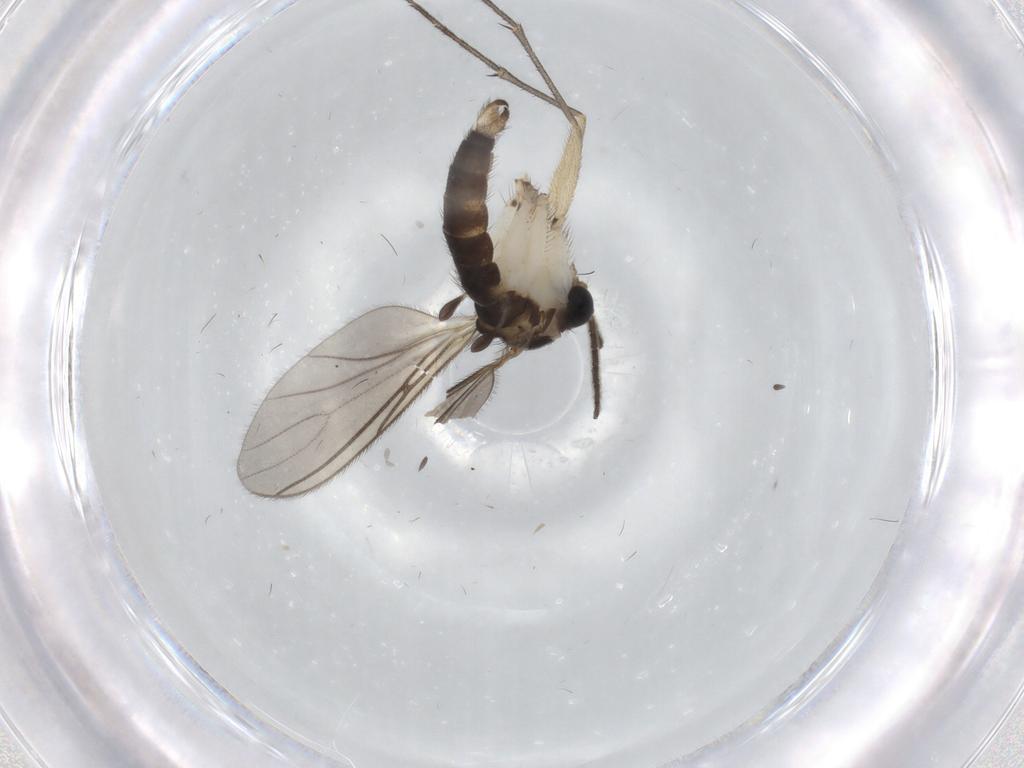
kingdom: Animalia
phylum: Arthropoda
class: Insecta
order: Diptera
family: Sciaridae
